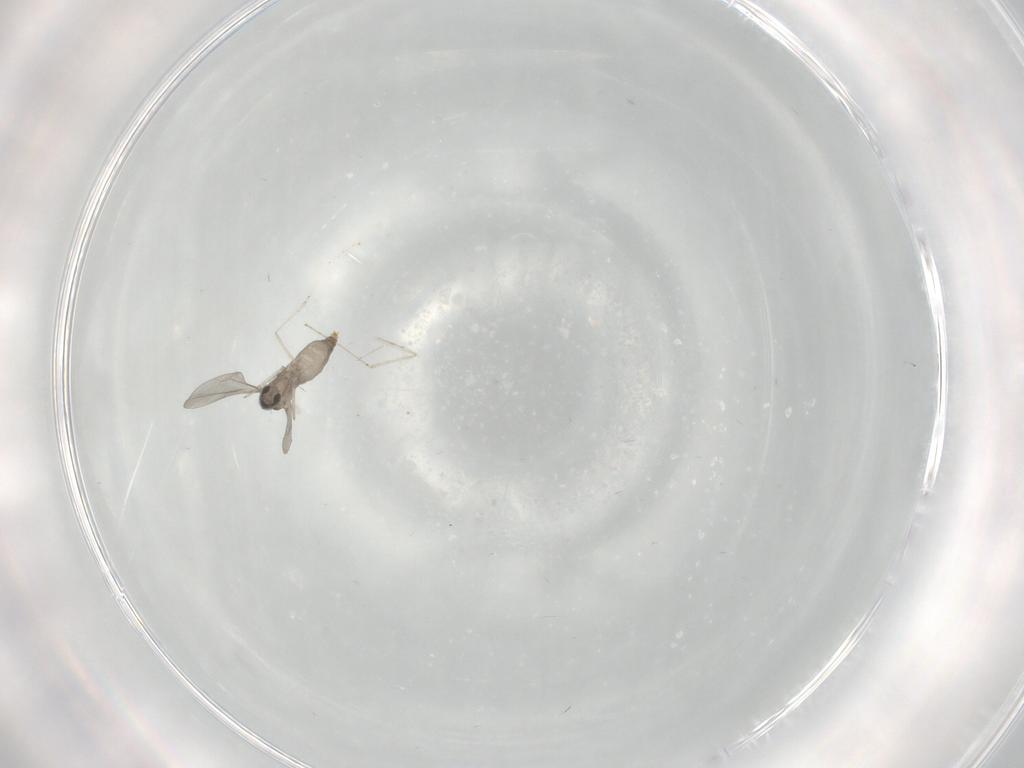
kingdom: Animalia
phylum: Arthropoda
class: Insecta
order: Diptera
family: Cecidomyiidae
